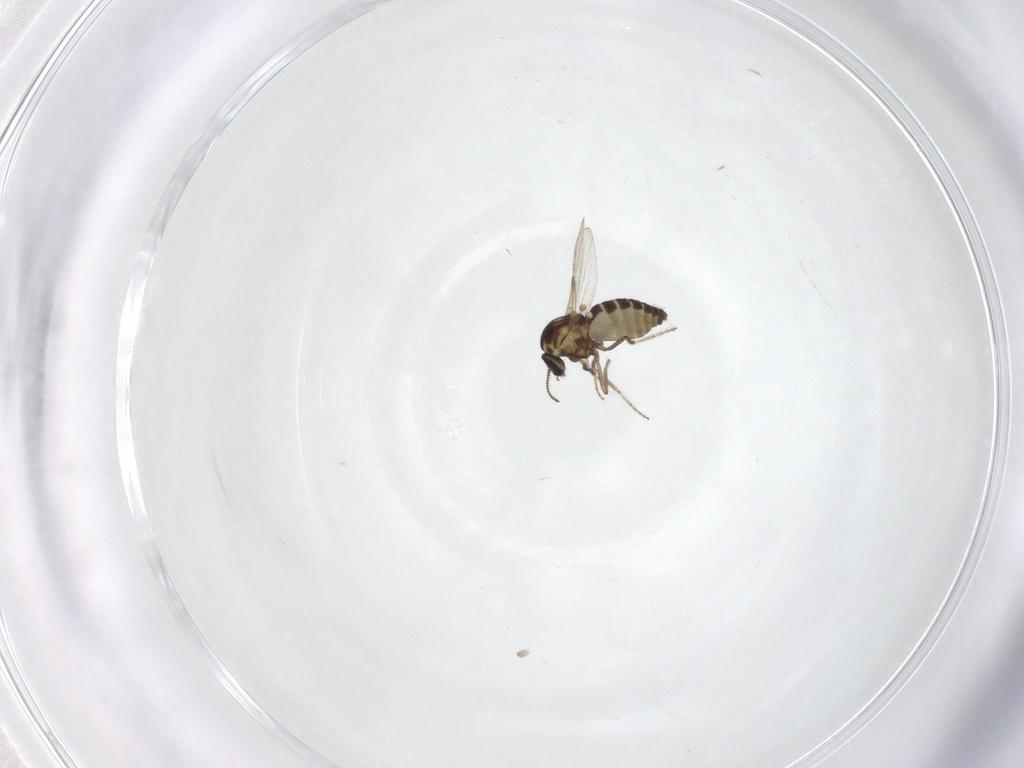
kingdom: Animalia
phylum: Arthropoda
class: Insecta
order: Diptera
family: Ceratopogonidae
